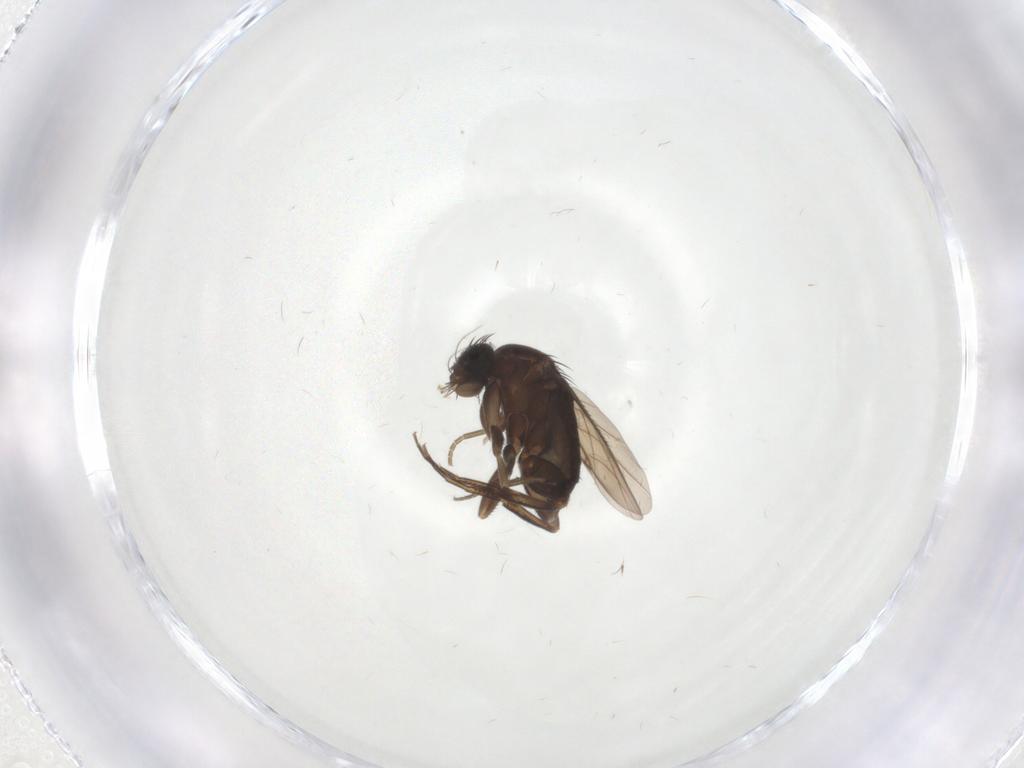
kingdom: Animalia
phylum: Arthropoda
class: Insecta
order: Diptera
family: Phoridae
